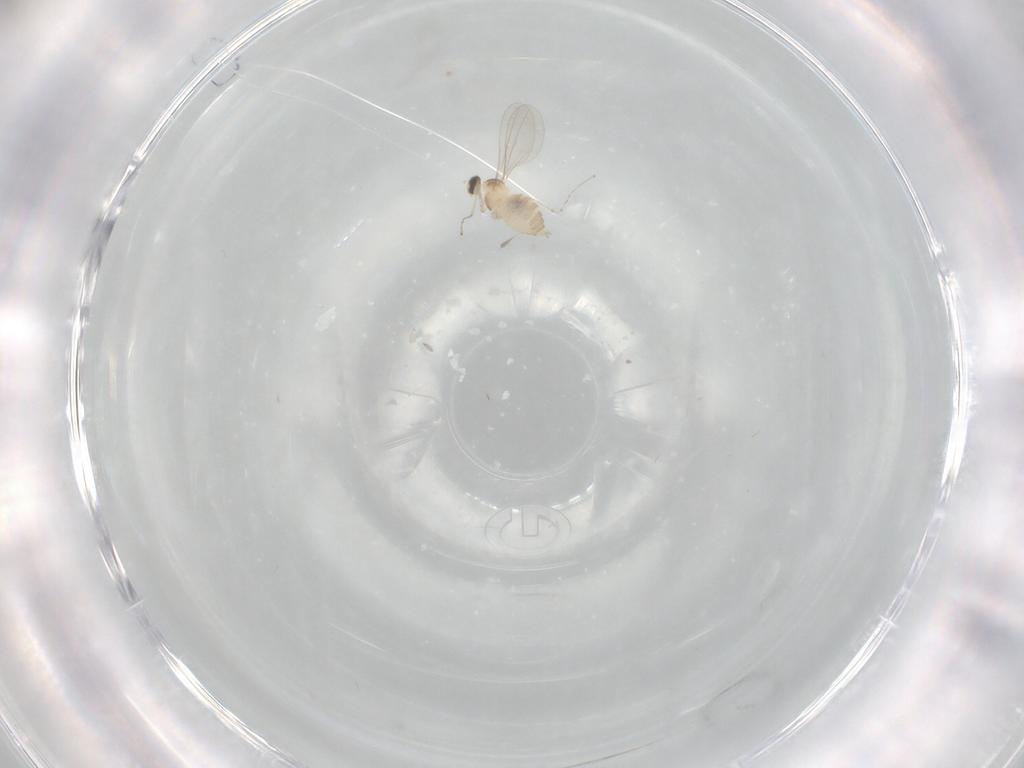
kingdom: Animalia
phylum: Arthropoda
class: Insecta
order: Diptera
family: Cecidomyiidae
